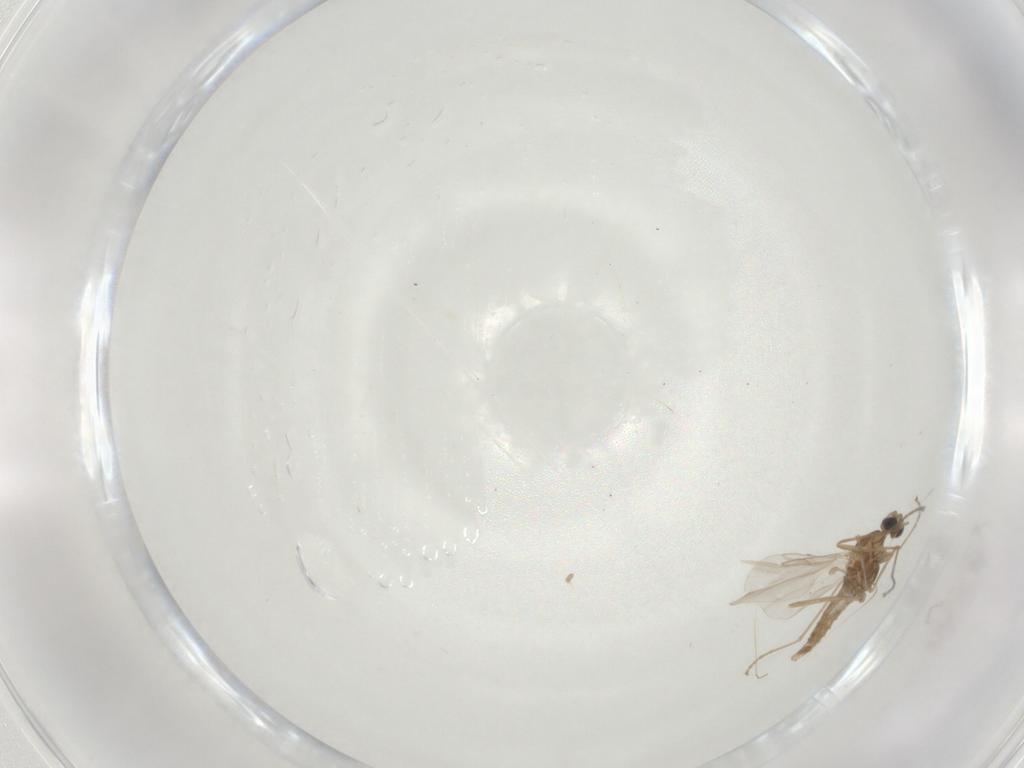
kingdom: Animalia
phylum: Arthropoda
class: Insecta
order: Diptera
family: Cecidomyiidae
